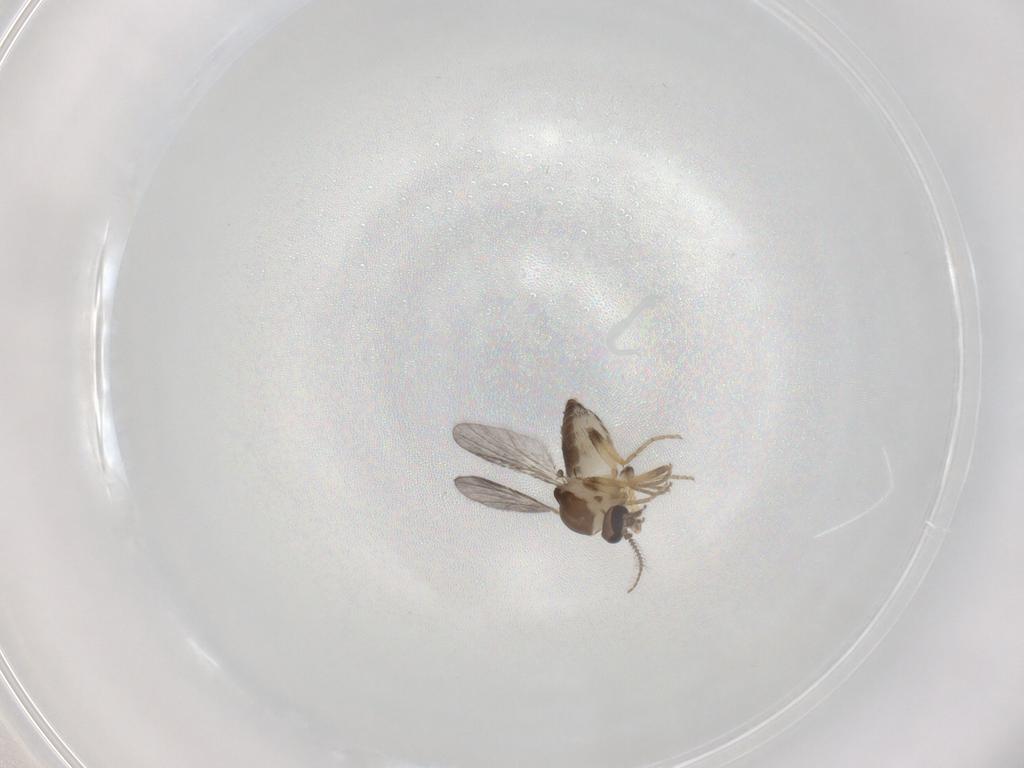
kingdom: Animalia
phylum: Arthropoda
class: Insecta
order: Diptera
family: Ceratopogonidae
